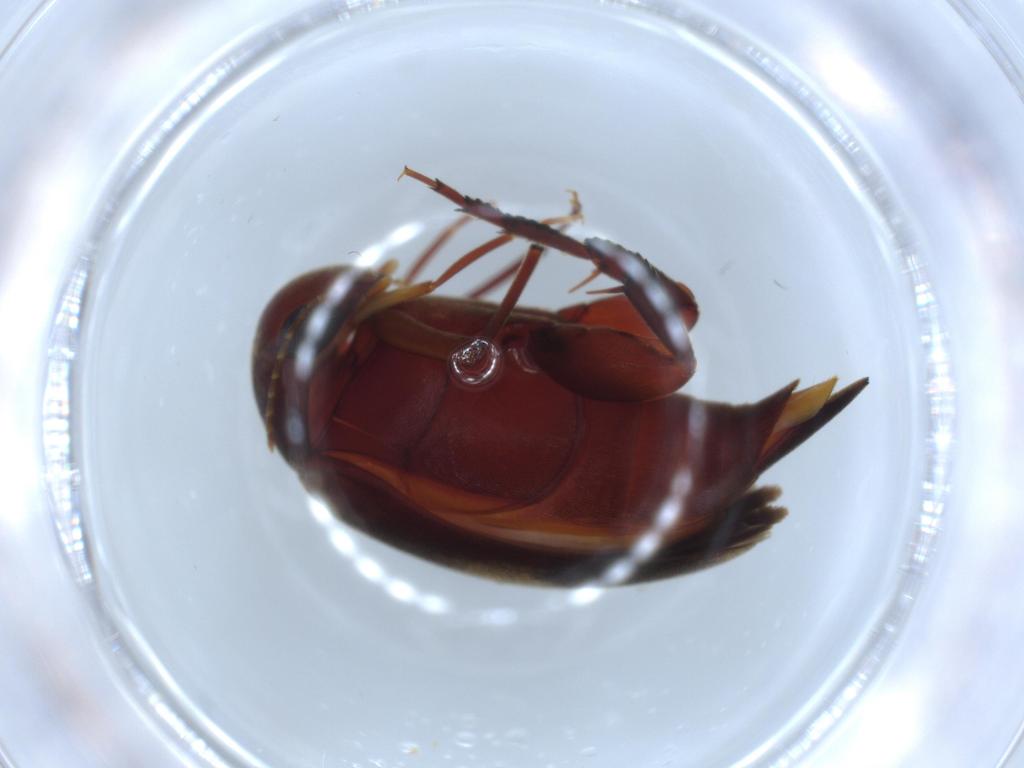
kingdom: Animalia
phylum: Arthropoda
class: Insecta
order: Coleoptera
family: Mordellidae
